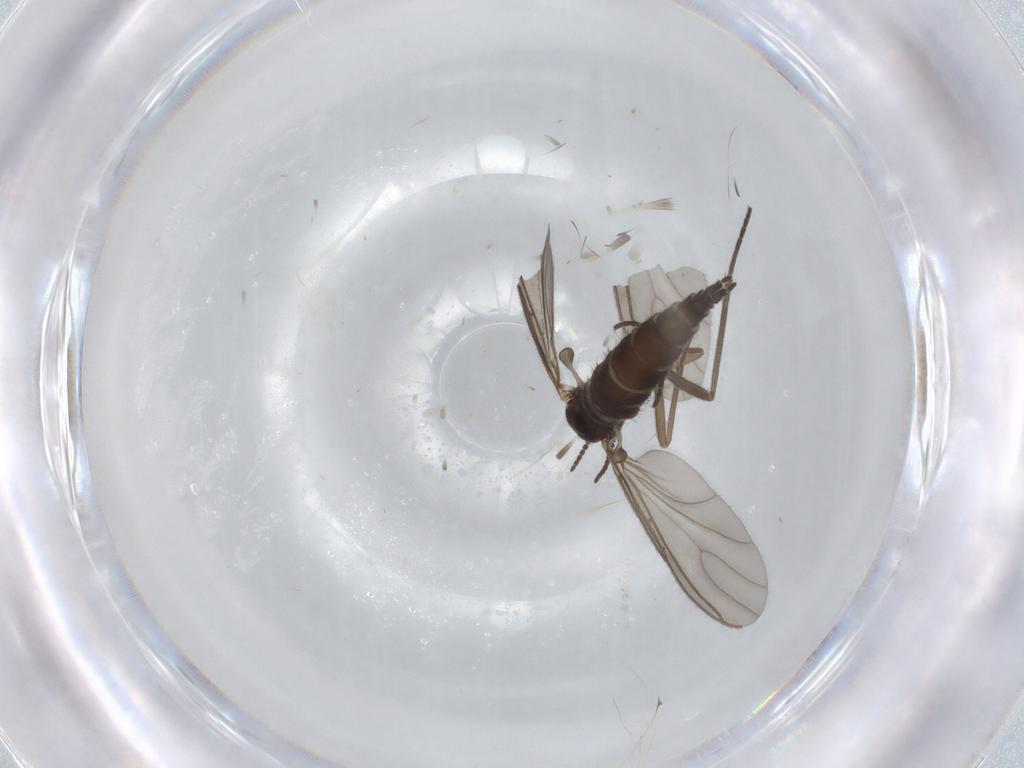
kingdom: Animalia
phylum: Arthropoda
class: Insecta
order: Diptera
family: Sciaridae
